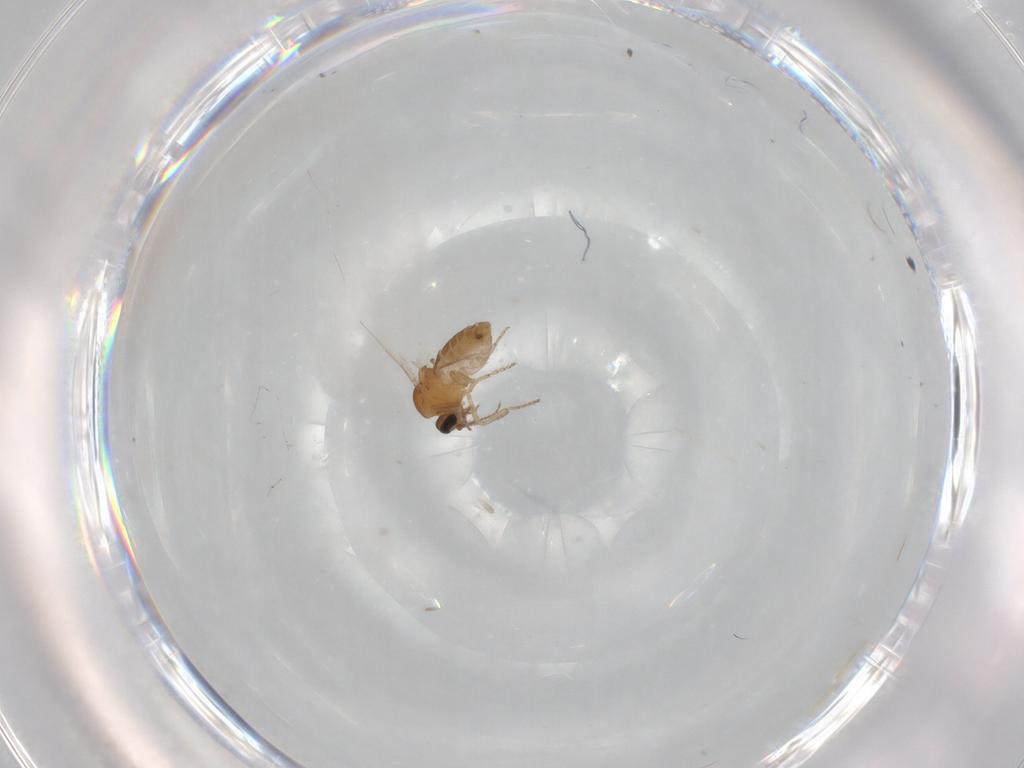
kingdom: Animalia
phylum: Arthropoda
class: Insecta
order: Diptera
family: Ceratopogonidae
